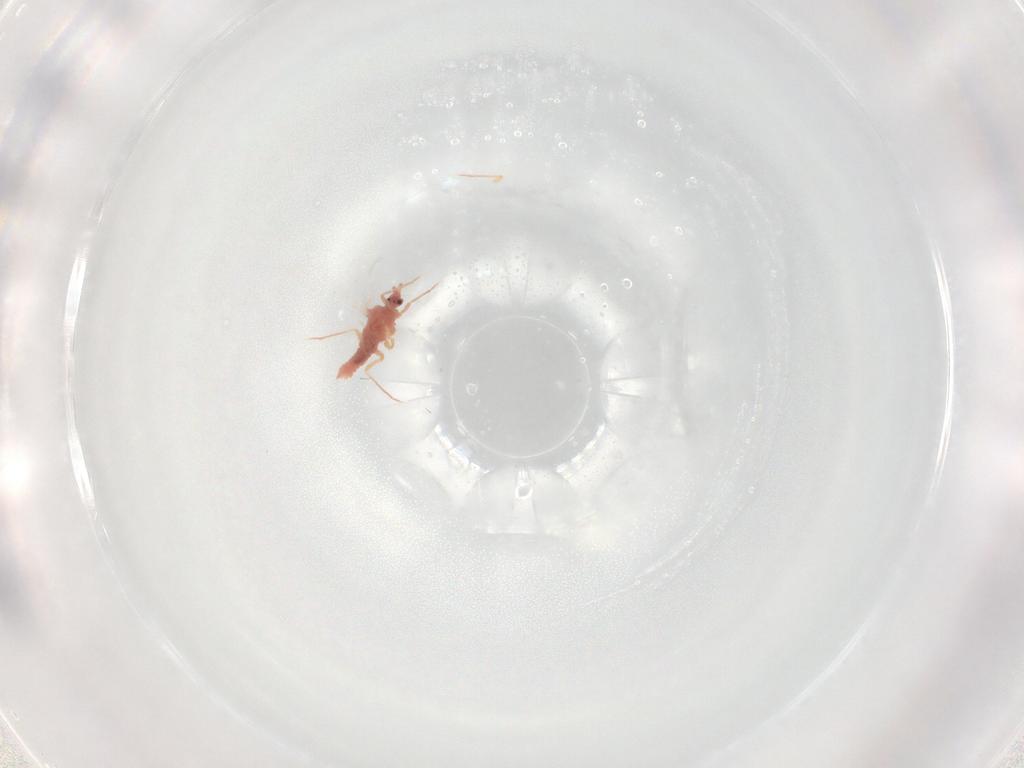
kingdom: Animalia
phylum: Arthropoda
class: Insecta
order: Hemiptera
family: Pseudococcidae
